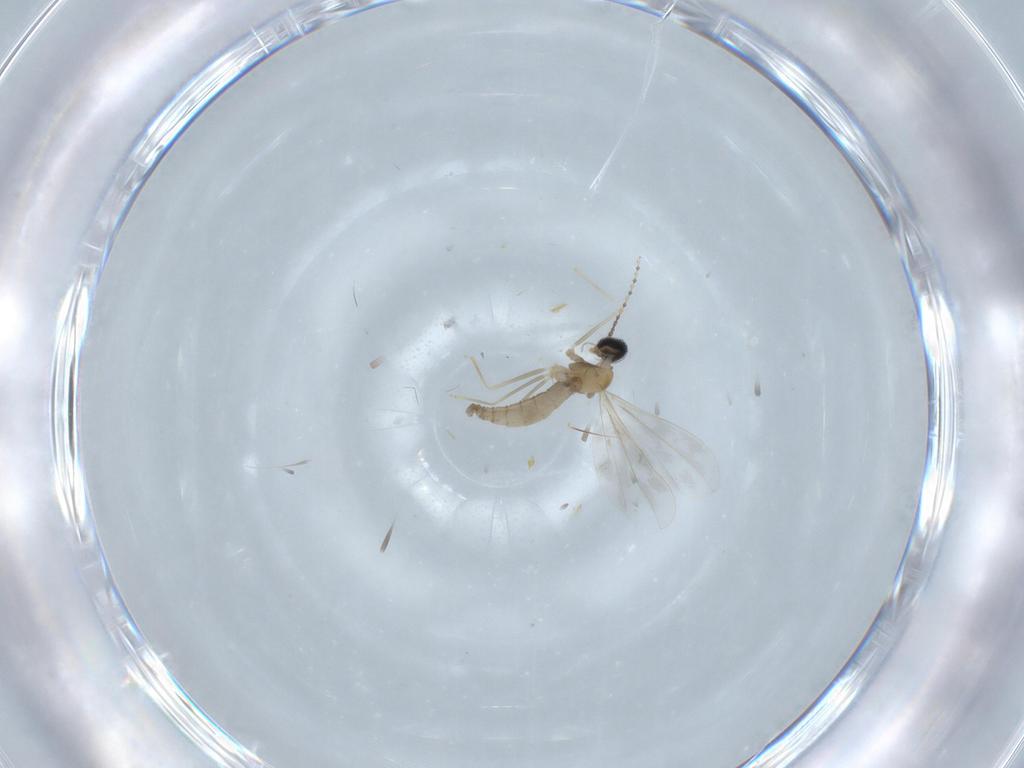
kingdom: Animalia
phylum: Arthropoda
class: Insecta
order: Diptera
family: Cecidomyiidae
